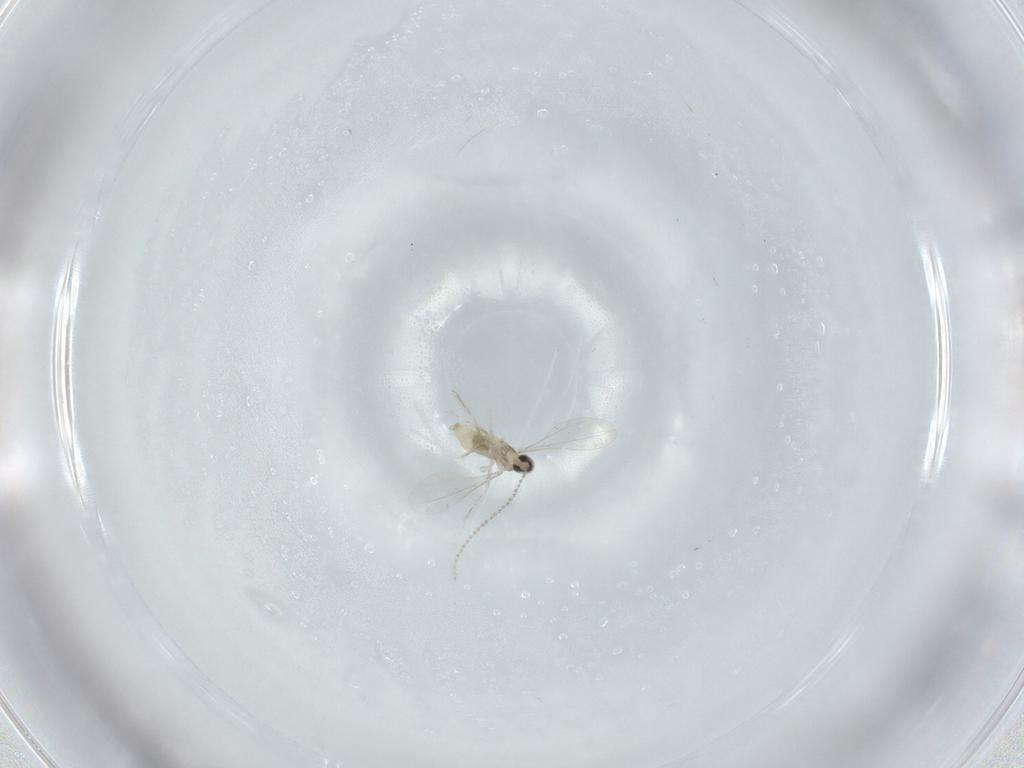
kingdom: Animalia
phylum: Arthropoda
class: Insecta
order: Diptera
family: Cecidomyiidae
